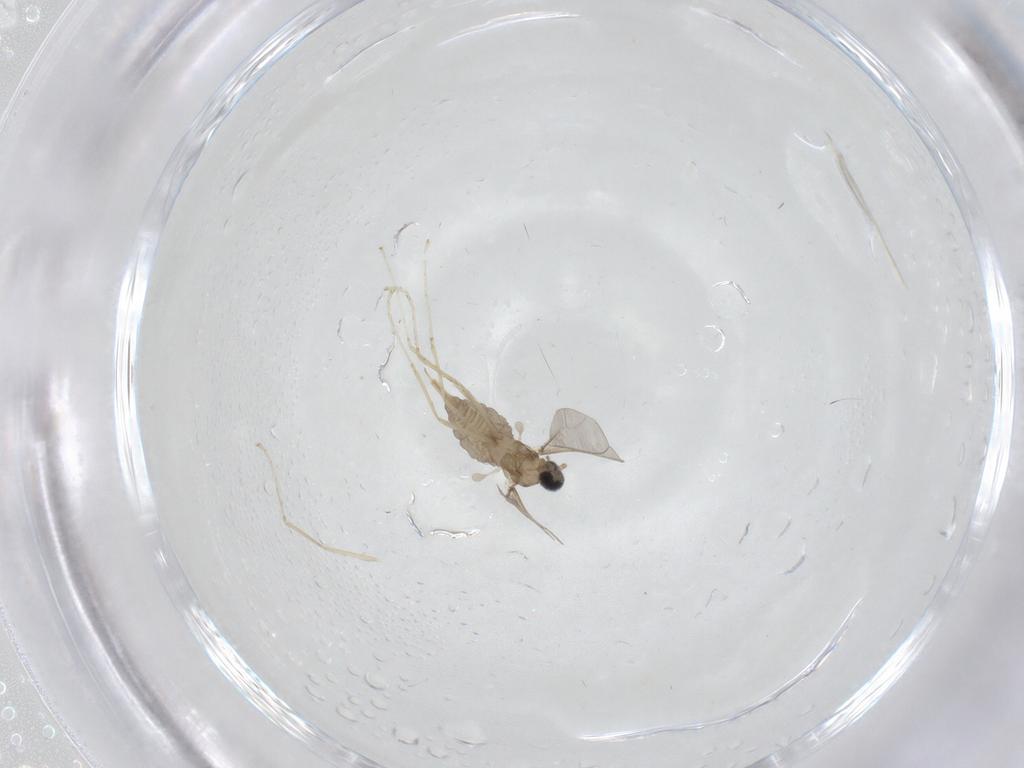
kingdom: Animalia
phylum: Arthropoda
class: Insecta
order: Diptera
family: Cecidomyiidae
